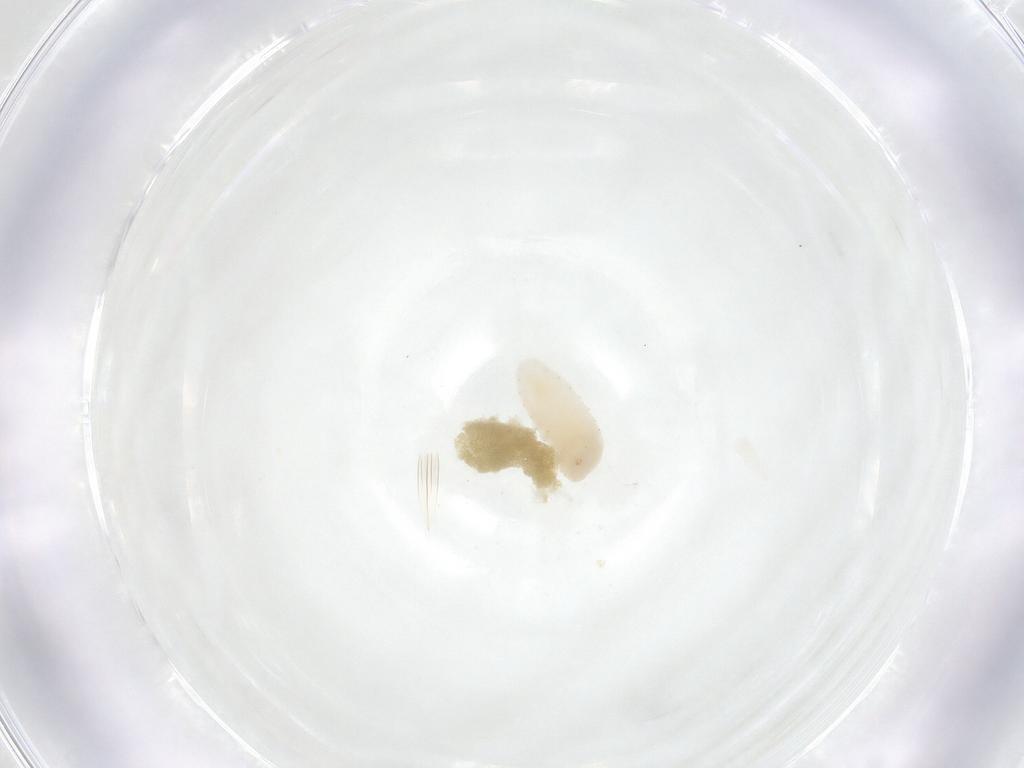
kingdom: Animalia
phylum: Arthropoda
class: Insecta
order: Diptera
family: Fergusoninidae
